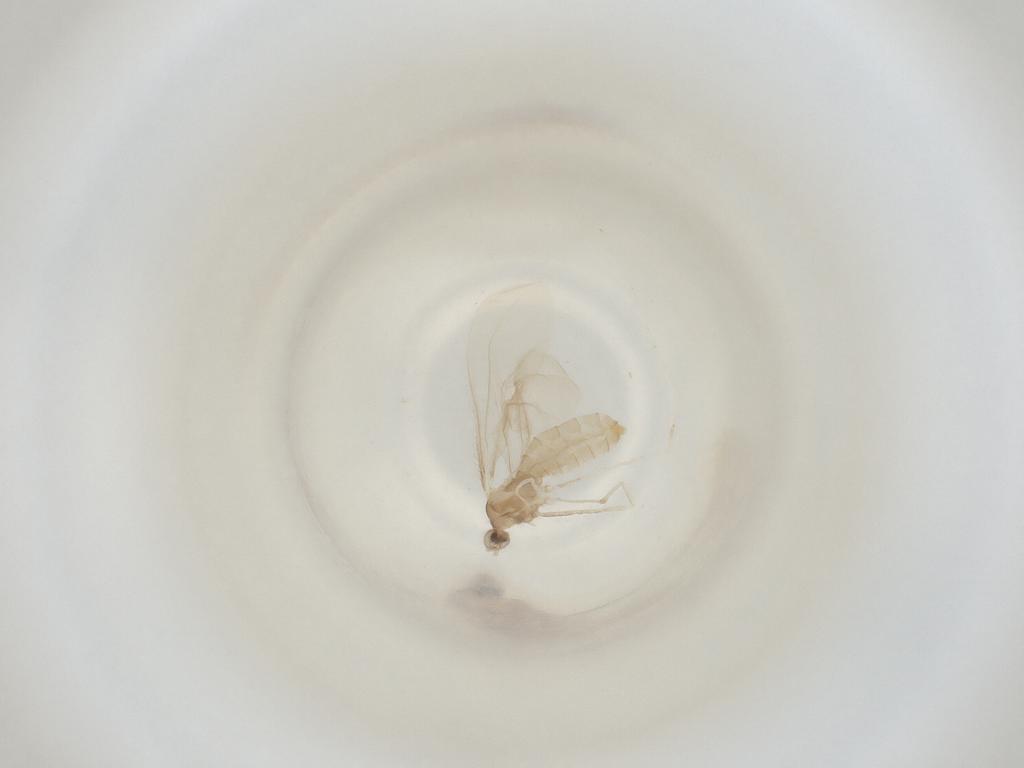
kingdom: Animalia
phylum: Arthropoda
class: Insecta
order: Diptera
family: Cecidomyiidae
